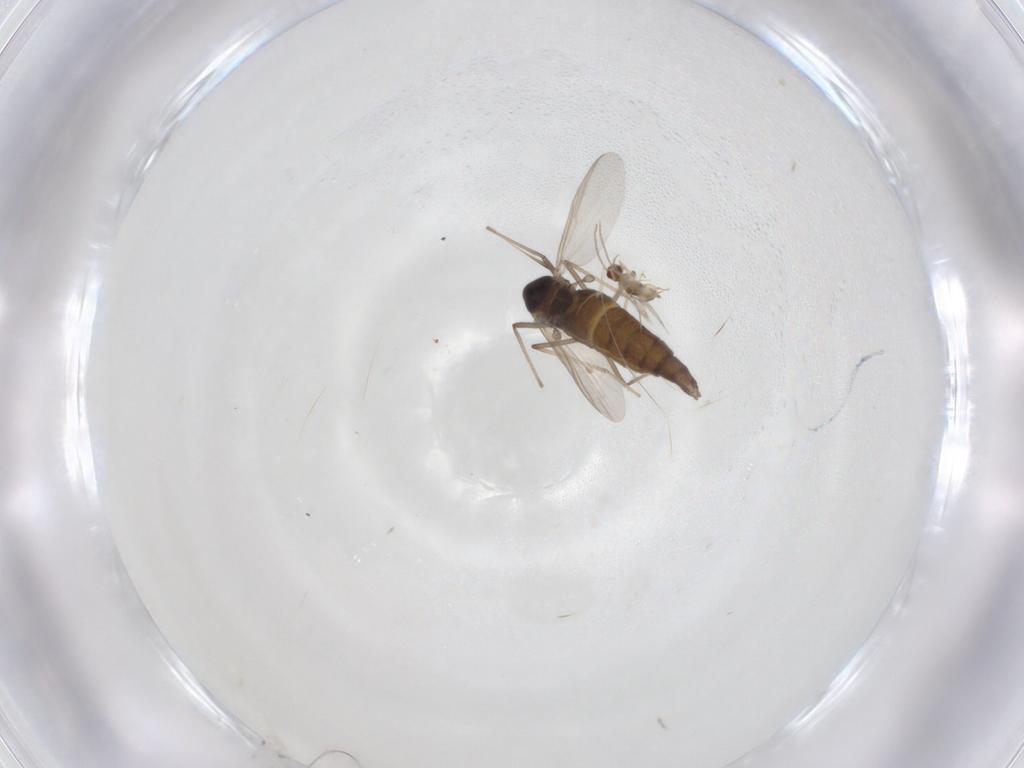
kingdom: Animalia
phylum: Arthropoda
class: Insecta
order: Diptera
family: Chironomidae
